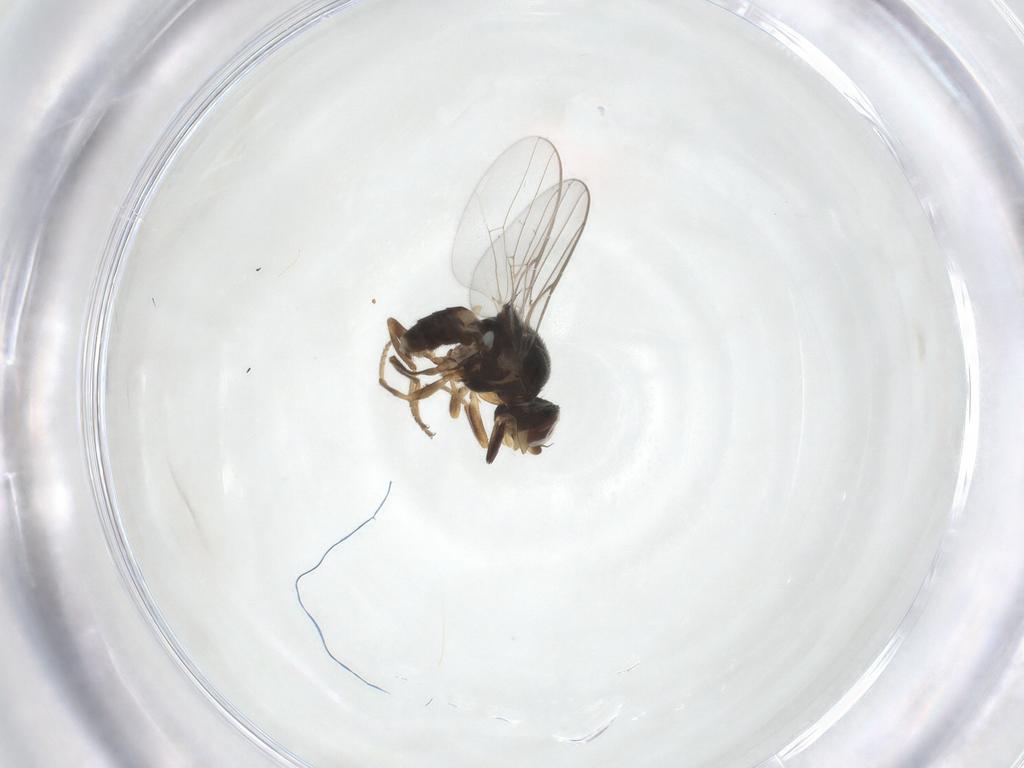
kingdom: Animalia
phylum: Arthropoda
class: Insecta
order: Diptera
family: Chloropidae
